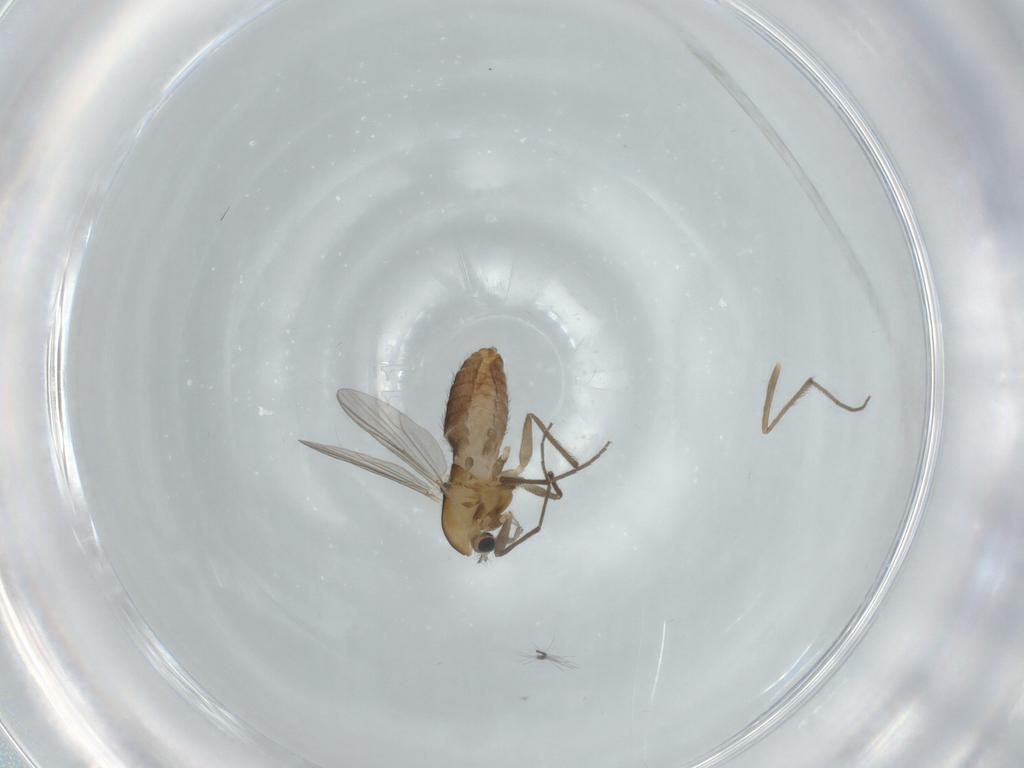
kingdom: Animalia
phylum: Arthropoda
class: Insecta
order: Diptera
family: Chironomidae
